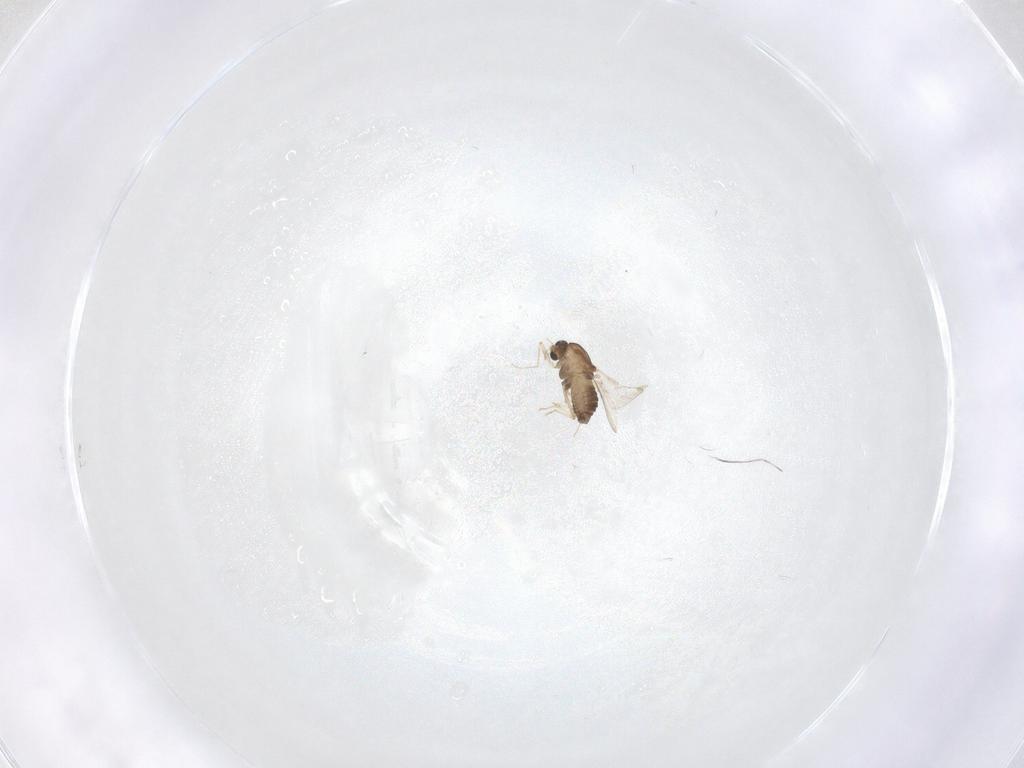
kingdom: Animalia
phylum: Arthropoda
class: Insecta
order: Diptera
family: Chironomidae
